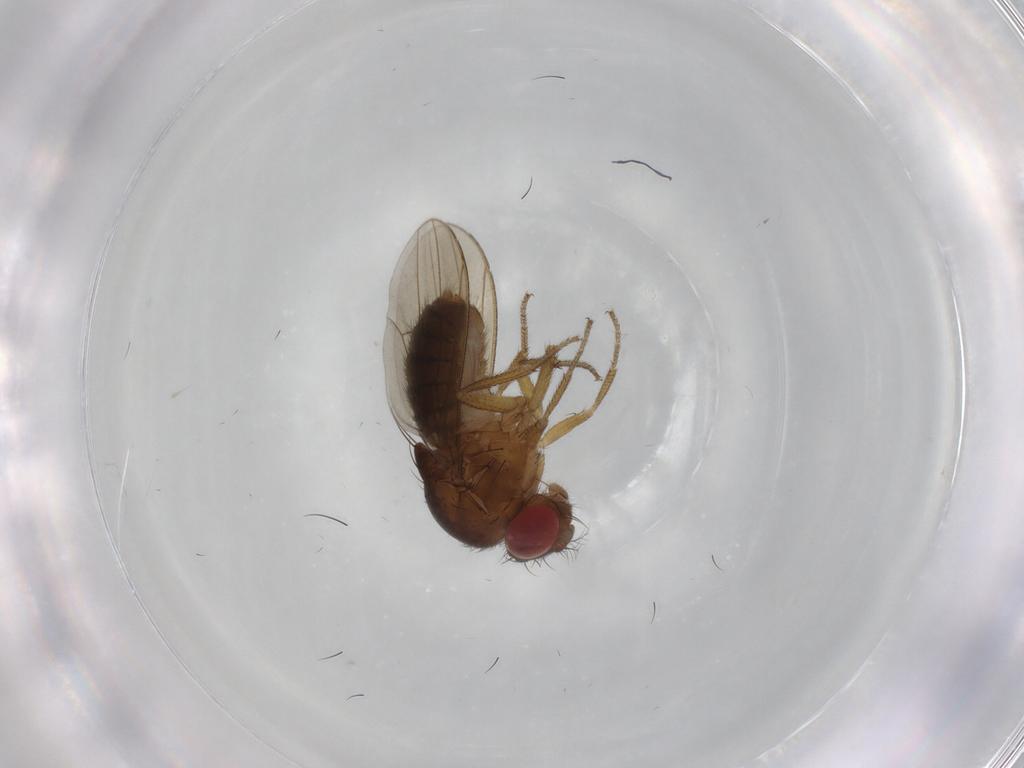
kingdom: Animalia
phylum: Arthropoda
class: Insecta
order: Diptera
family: Drosophilidae
